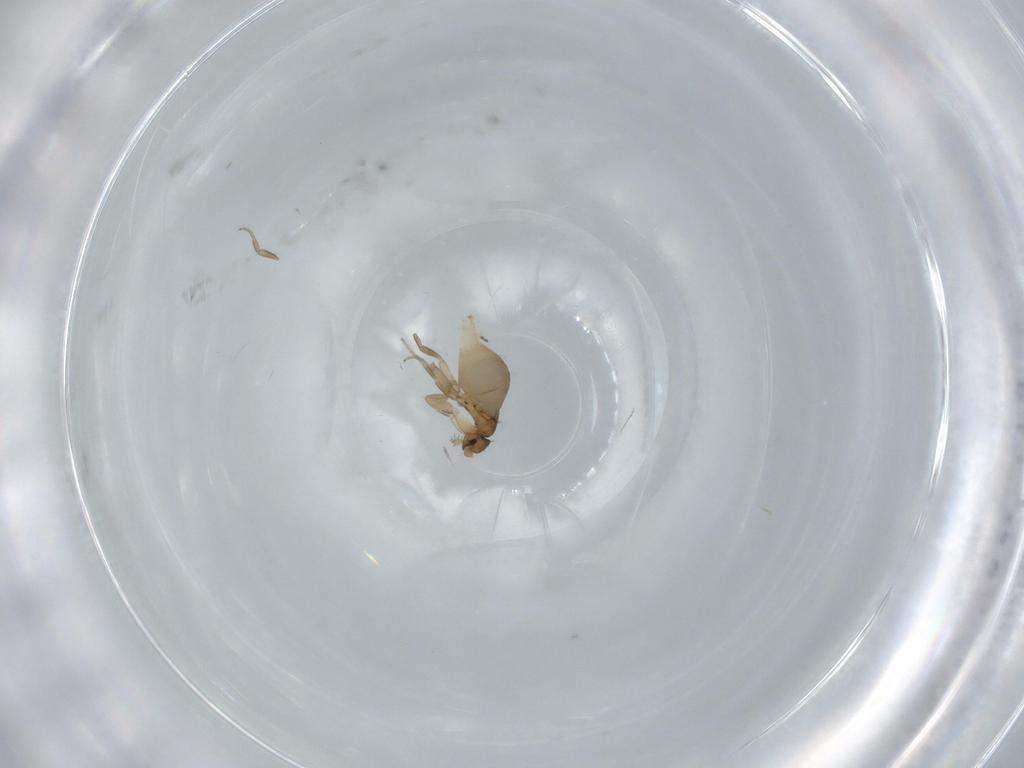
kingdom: Animalia
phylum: Arthropoda
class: Insecta
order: Diptera
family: Phoridae
